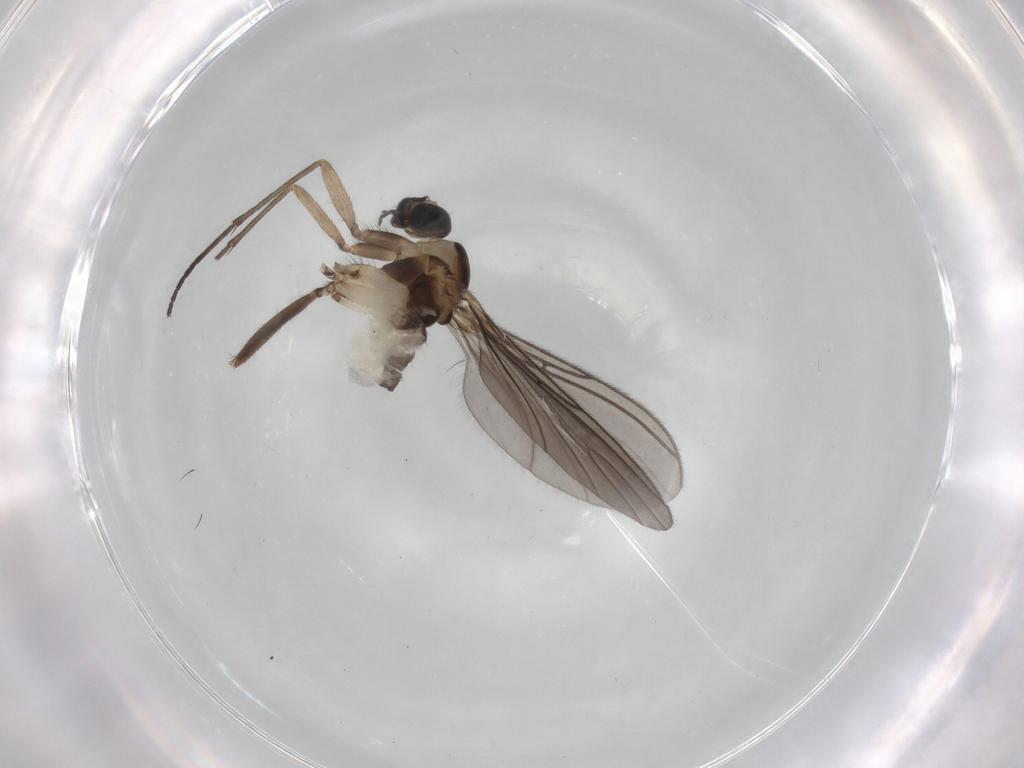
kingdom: Animalia
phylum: Arthropoda
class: Insecta
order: Diptera
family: Sciaridae
